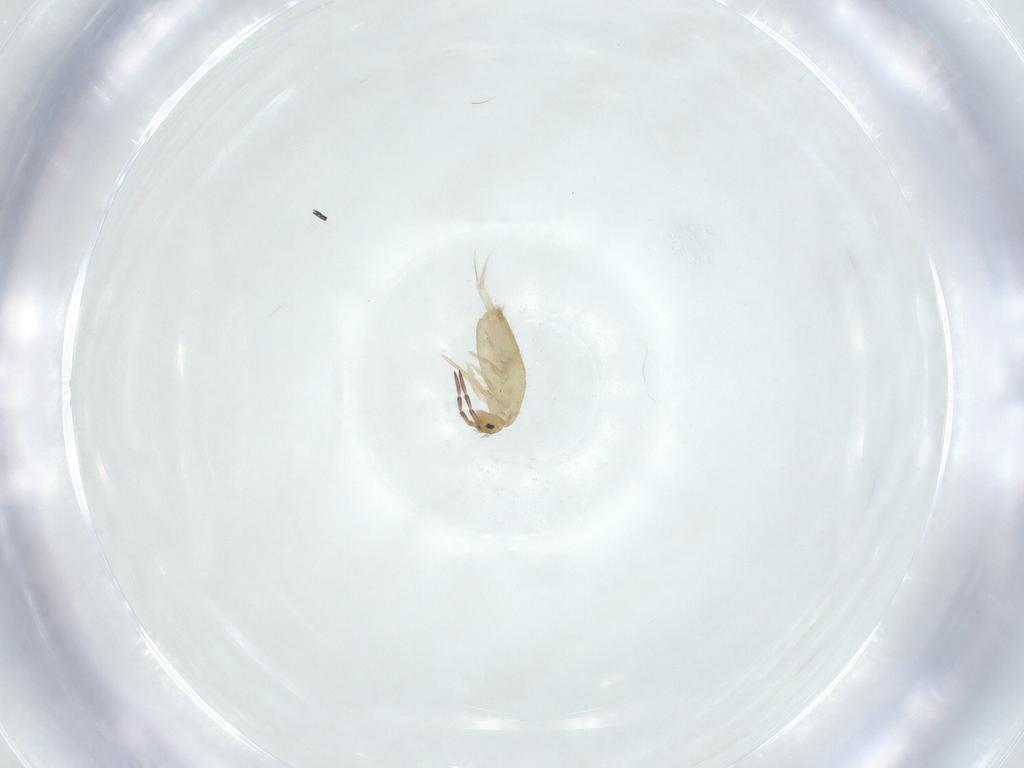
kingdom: Animalia
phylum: Arthropoda
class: Collembola
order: Entomobryomorpha
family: Entomobryidae
